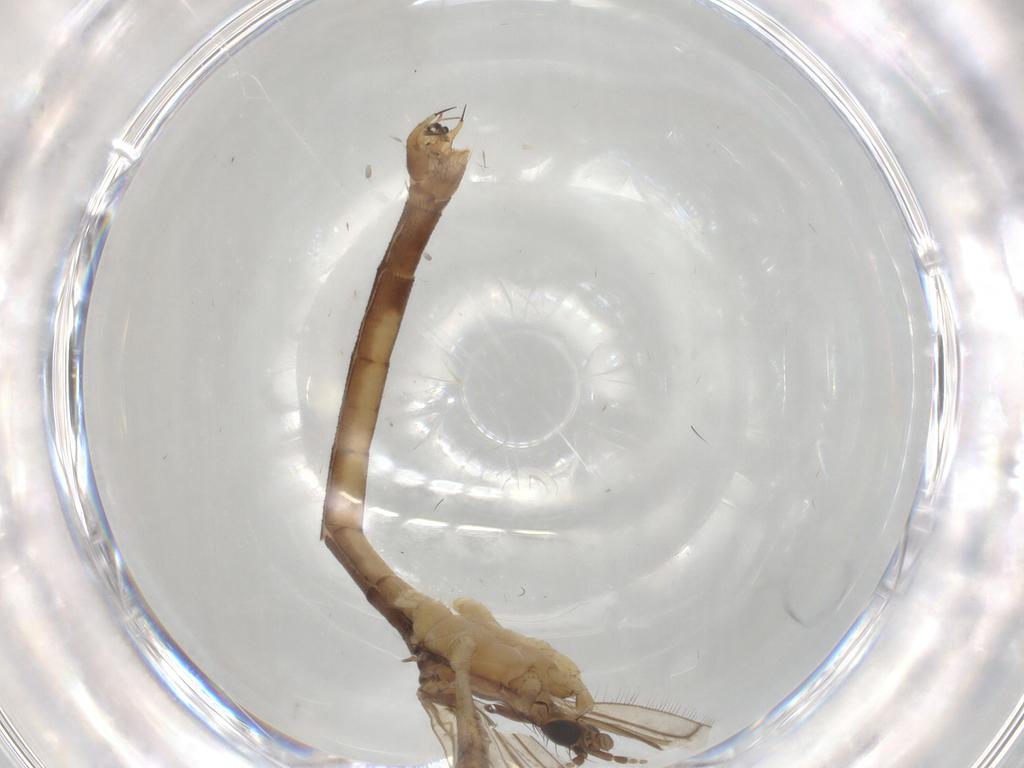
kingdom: Animalia
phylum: Arthropoda
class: Insecta
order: Diptera
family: Limoniidae
